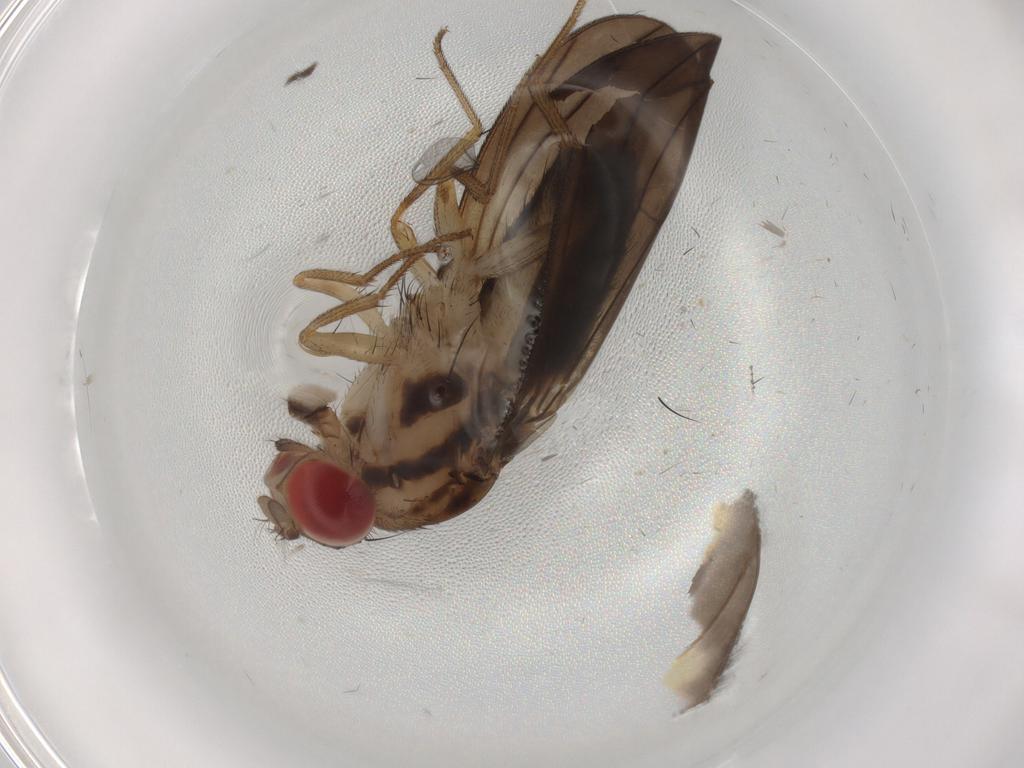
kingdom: Animalia
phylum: Arthropoda
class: Insecta
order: Diptera
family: Drosophilidae
